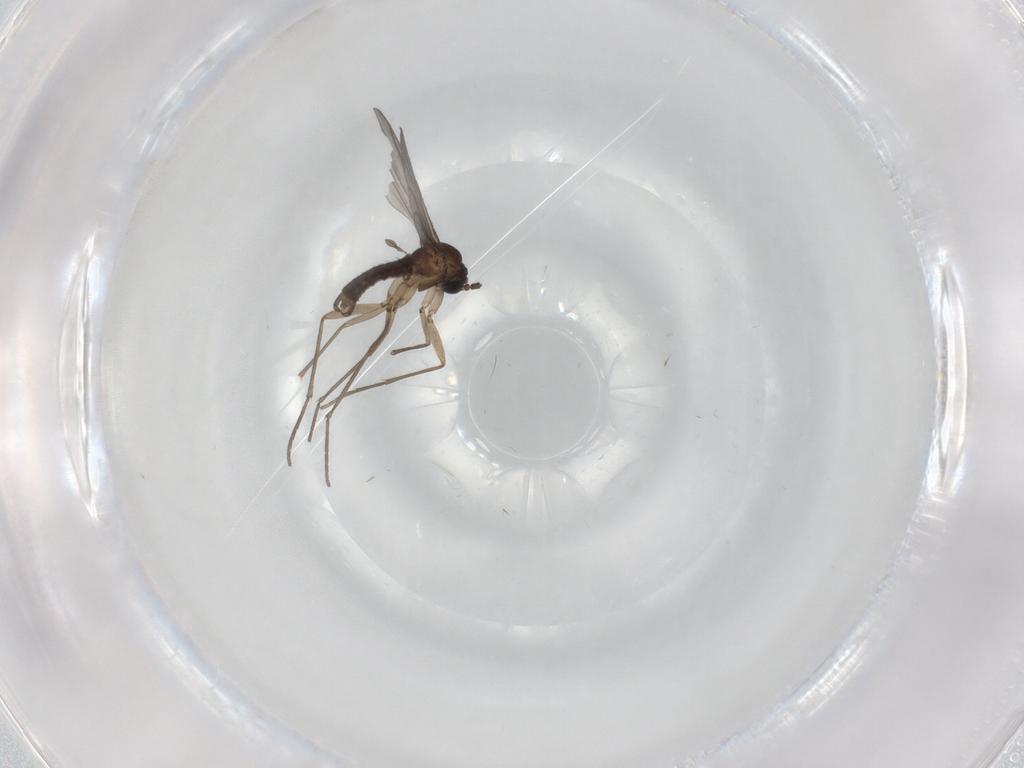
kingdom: Animalia
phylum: Arthropoda
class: Insecta
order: Diptera
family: Sciaridae
